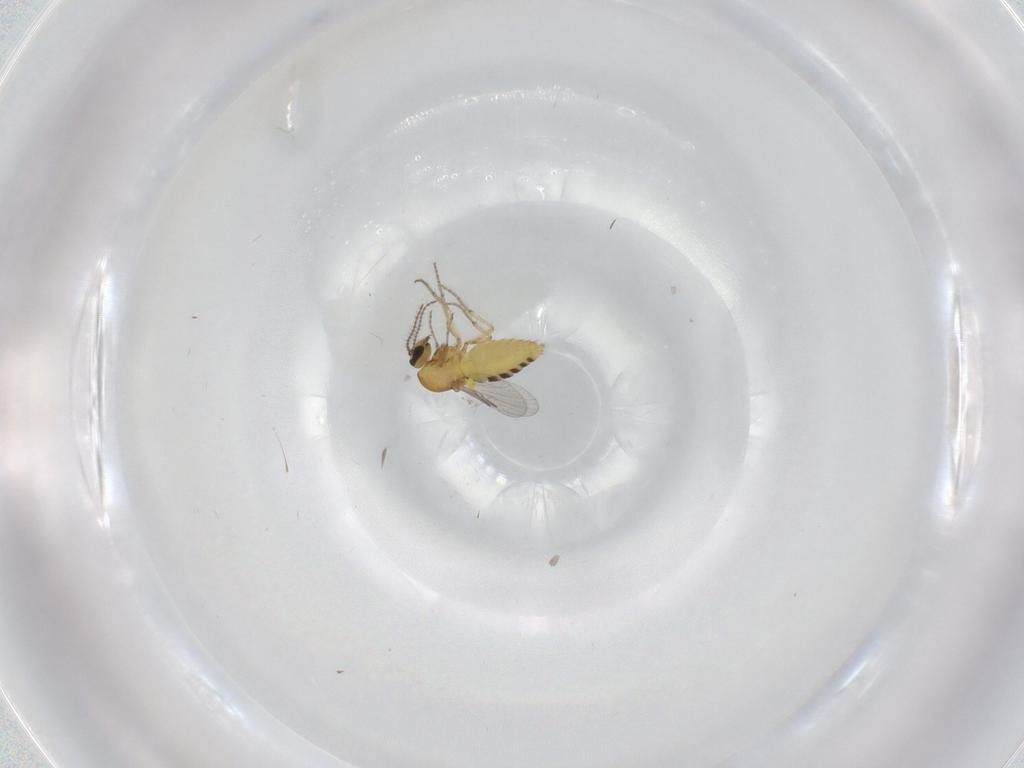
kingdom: Animalia
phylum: Arthropoda
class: Insecta
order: Diptera
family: Ceratopogonidae
